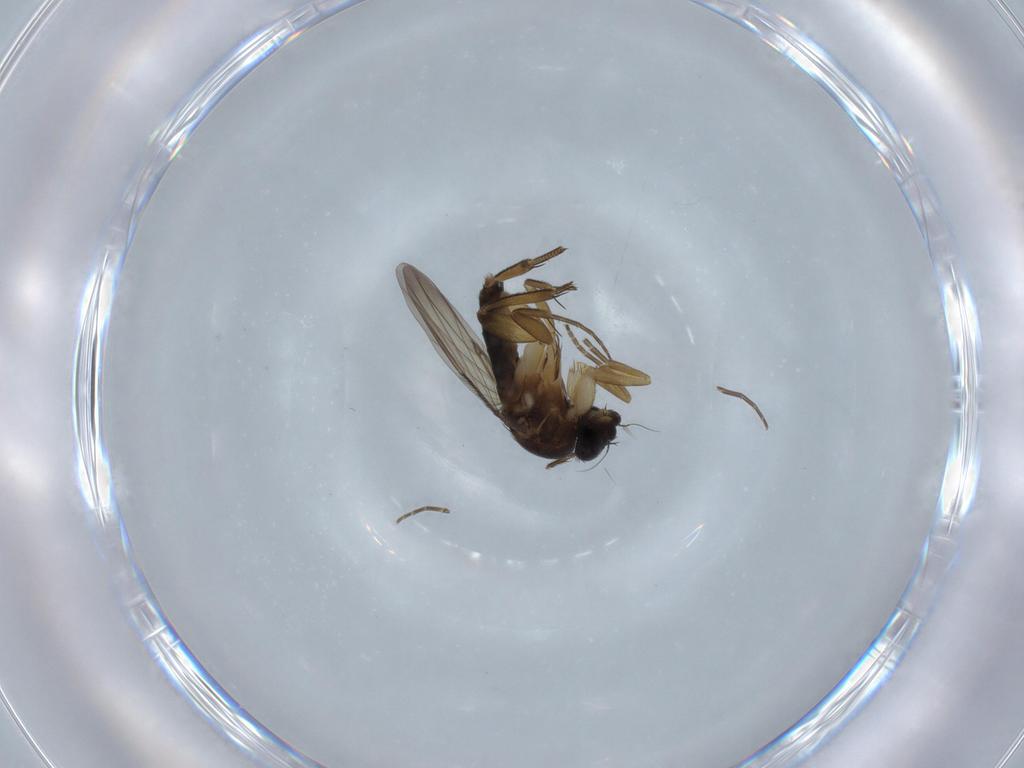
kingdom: Animalia
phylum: Arthropoda
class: Insecta
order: Diptera
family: Phoridae
